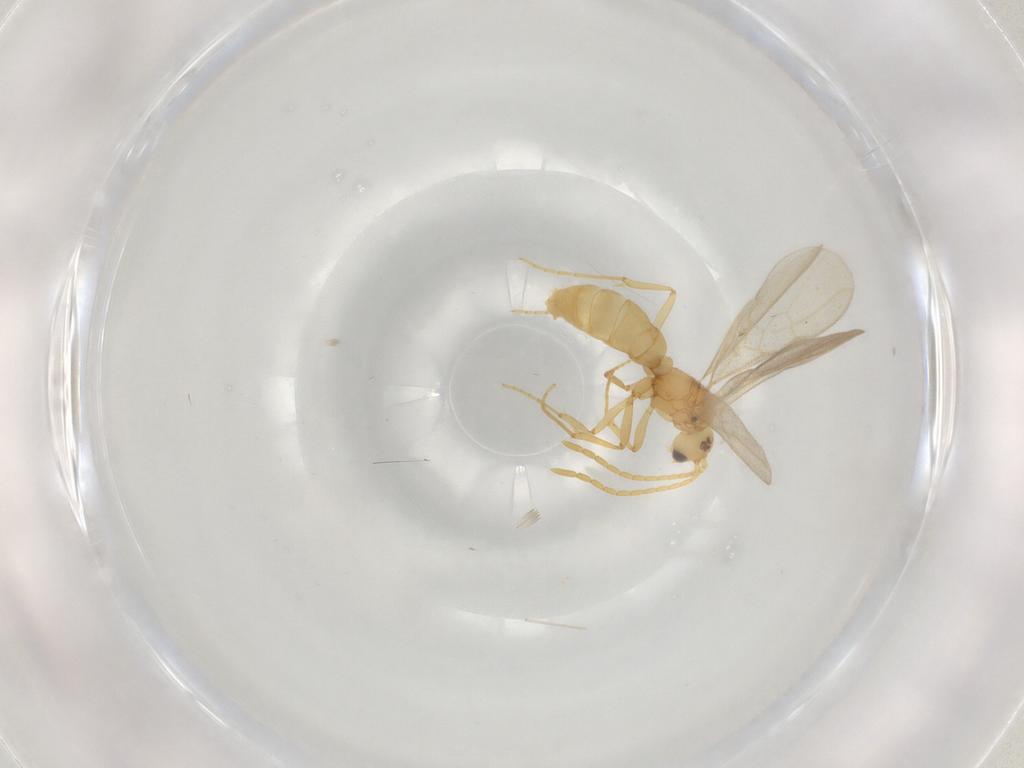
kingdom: Animalia
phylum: Arthropoda
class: Insecta
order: Hymenoptera
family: Formicidae
